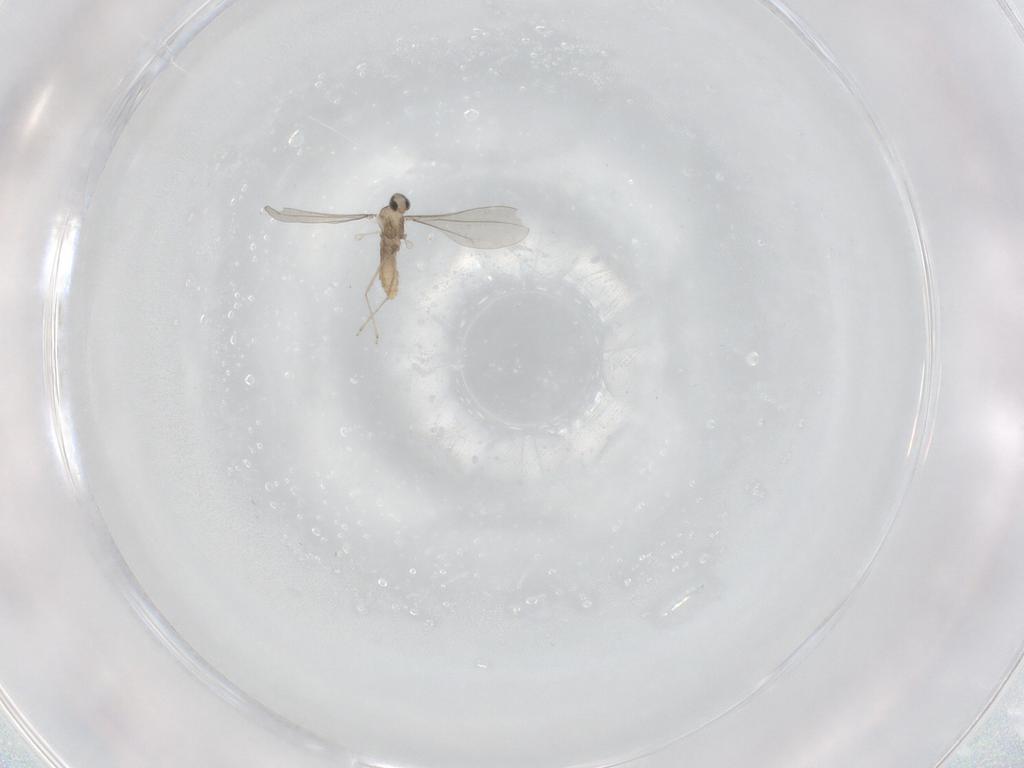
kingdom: Animalia
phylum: Arthropoda
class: Insecta
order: Diptera
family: Cecidomyiidae
